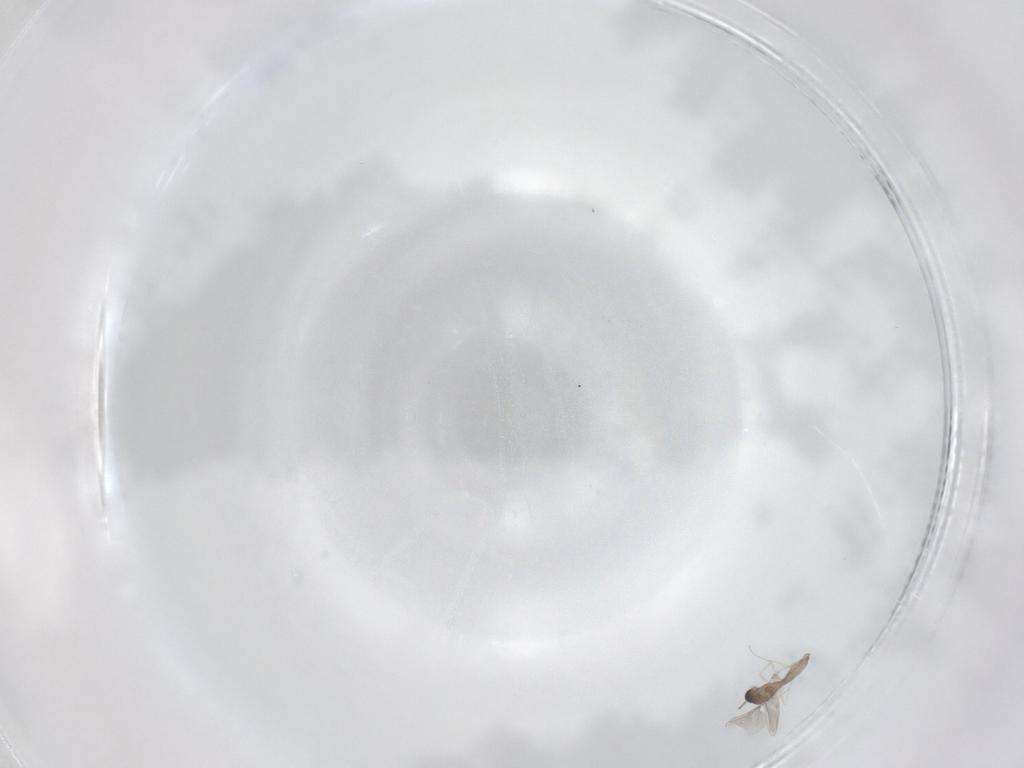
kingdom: Animalia
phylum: Arthropoda
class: Insecta
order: Diptera
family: Cecidomyiidae
